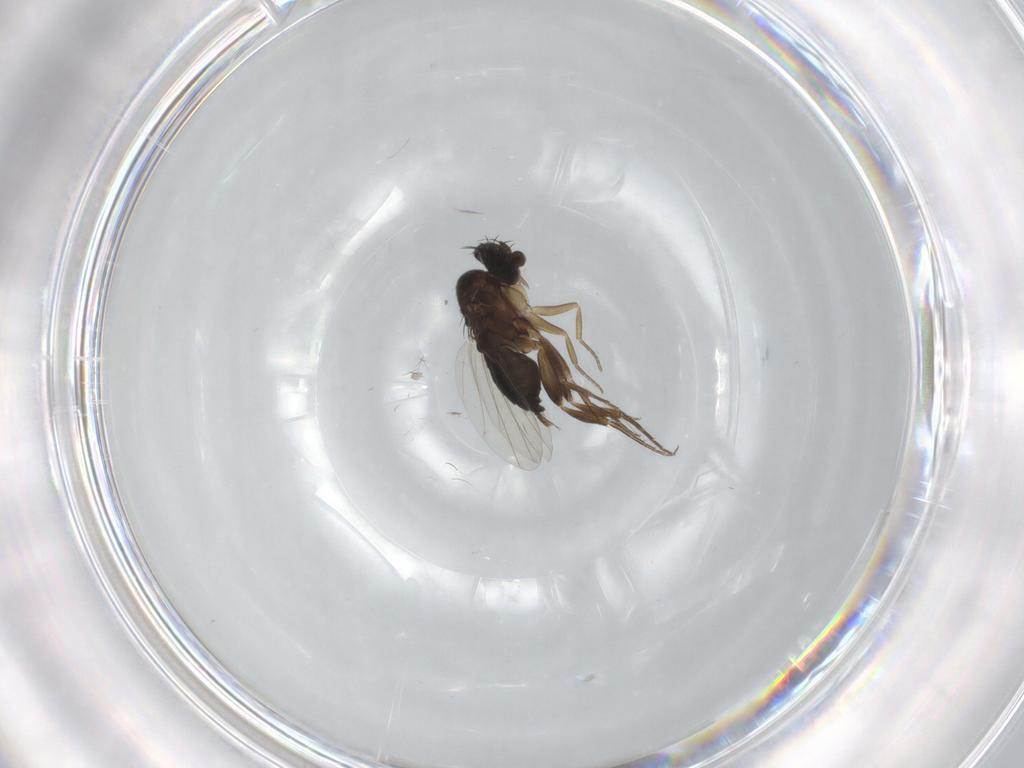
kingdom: Animalia
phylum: Arthropoda
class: Insecta
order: Diptera
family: Phoridae
